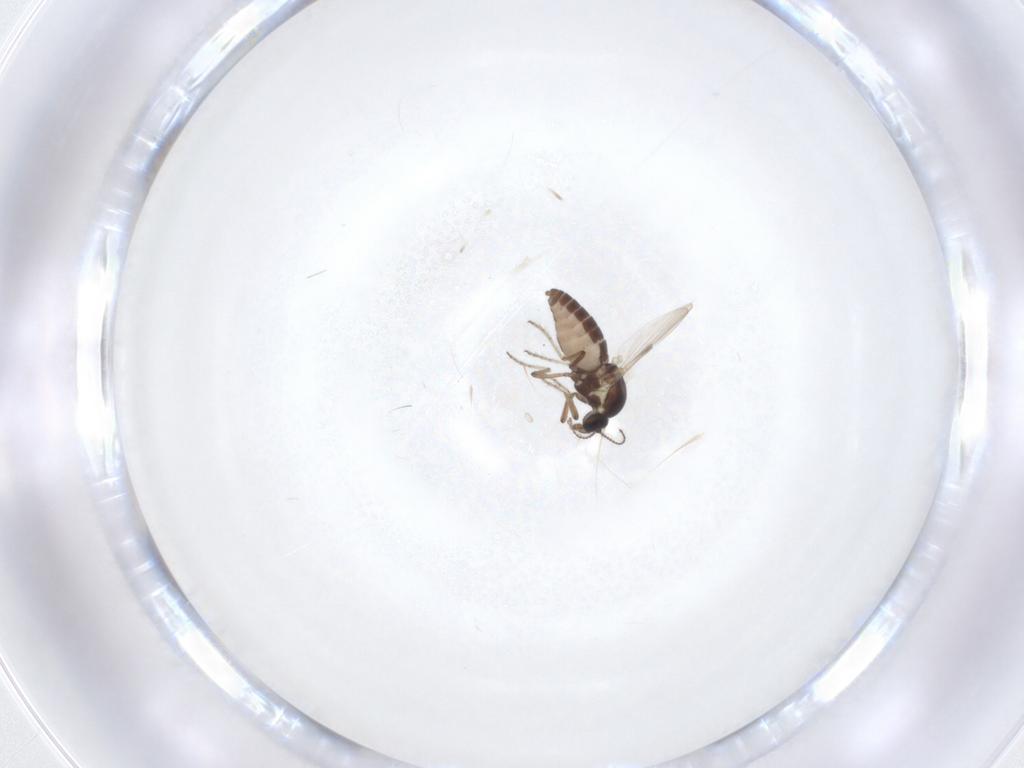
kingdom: Animalia
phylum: Arthropoda
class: Insecta
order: Diptera
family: Ceratopogonidae
